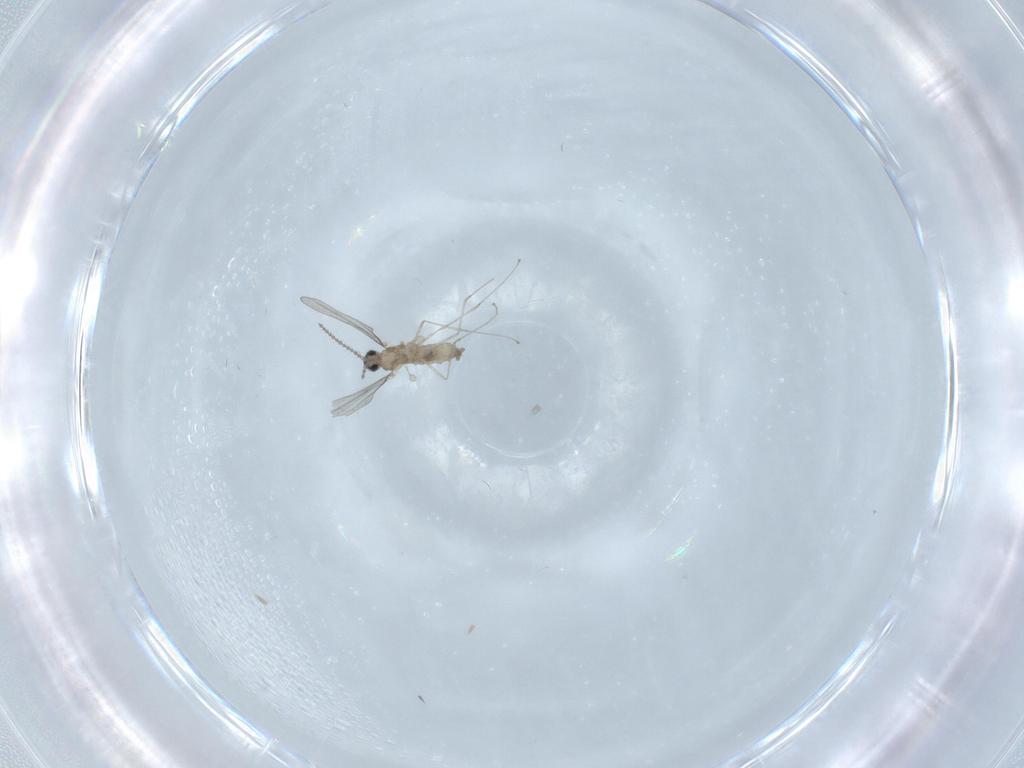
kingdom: Animalia
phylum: Arthropoda
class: Insecta
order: Diptera
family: Cecidomyiidae
